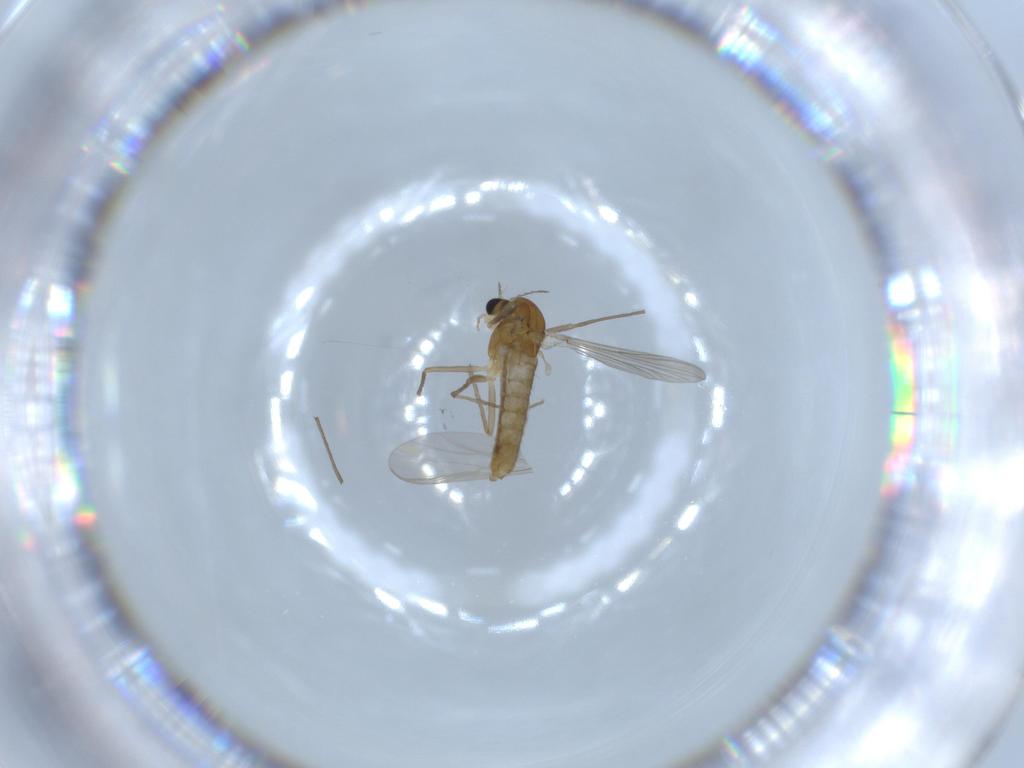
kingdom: Animalia
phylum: Arthropoda
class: Insecta
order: Diptera
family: Chironomidae
